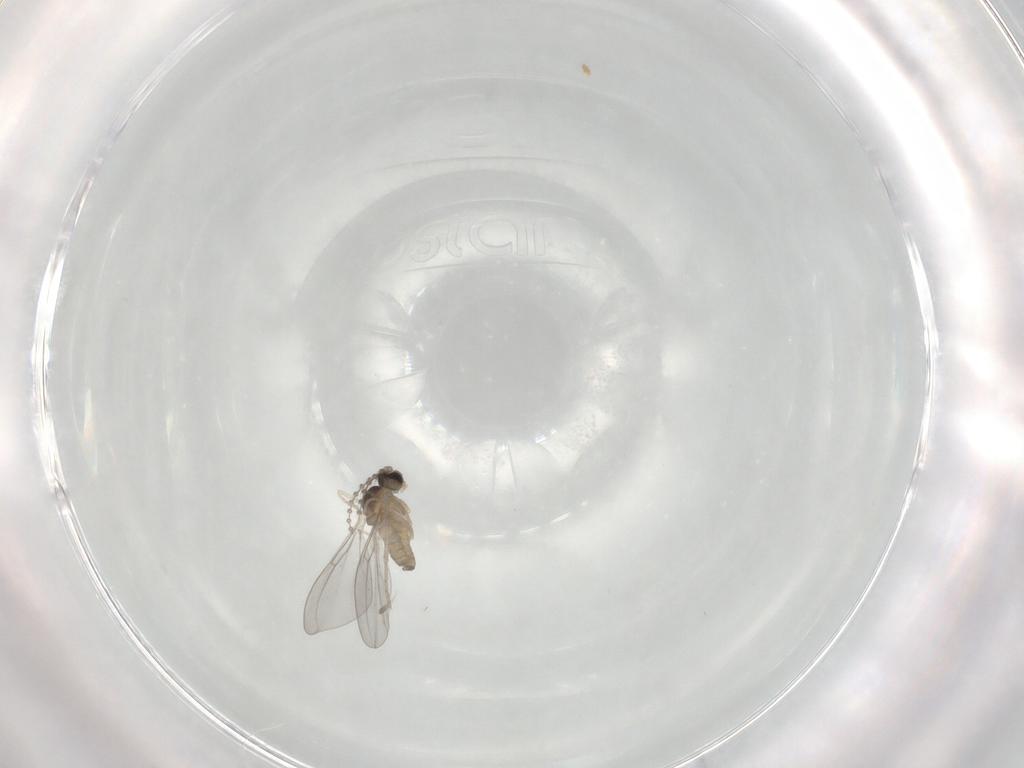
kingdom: Animalia
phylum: Arthropoda
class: Insecta
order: Diptera
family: Cecidomyiidae
